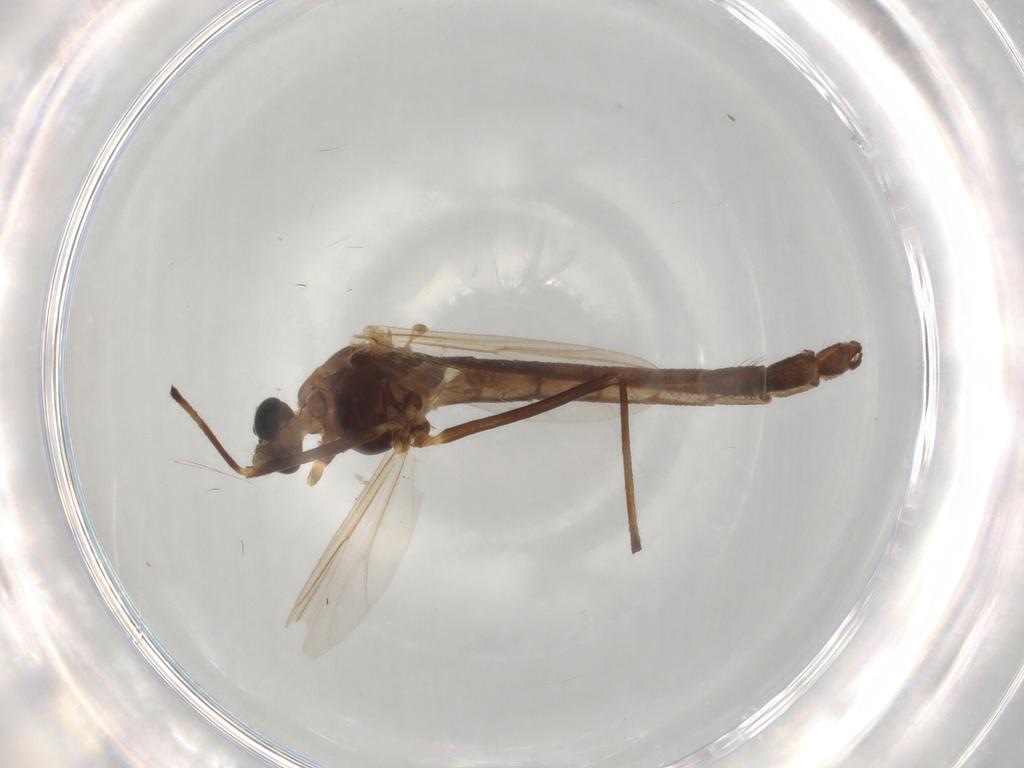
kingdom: Animalia
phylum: Arthropoda
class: Insecta
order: Diptera
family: Chironomidae
